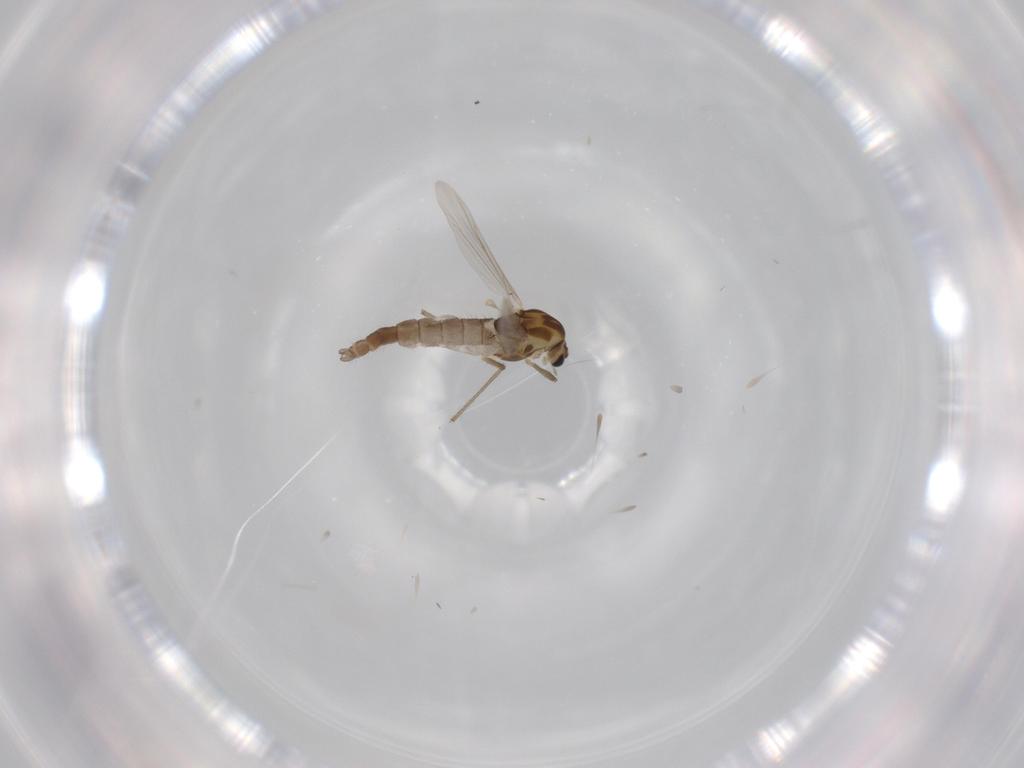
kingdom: Animalia
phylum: Arthropoda
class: Insecta
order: Diptera
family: Chironomidae
